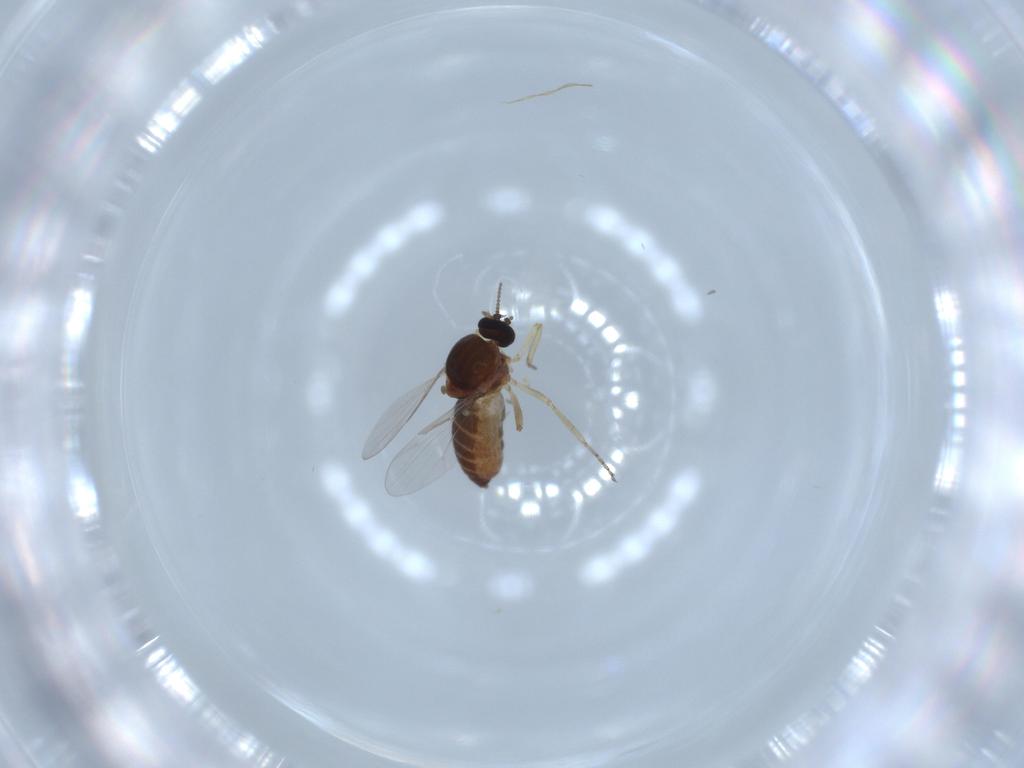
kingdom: Animalia
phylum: Arthropoda
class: Insecta
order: Diptera
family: Ceratopogonidae
